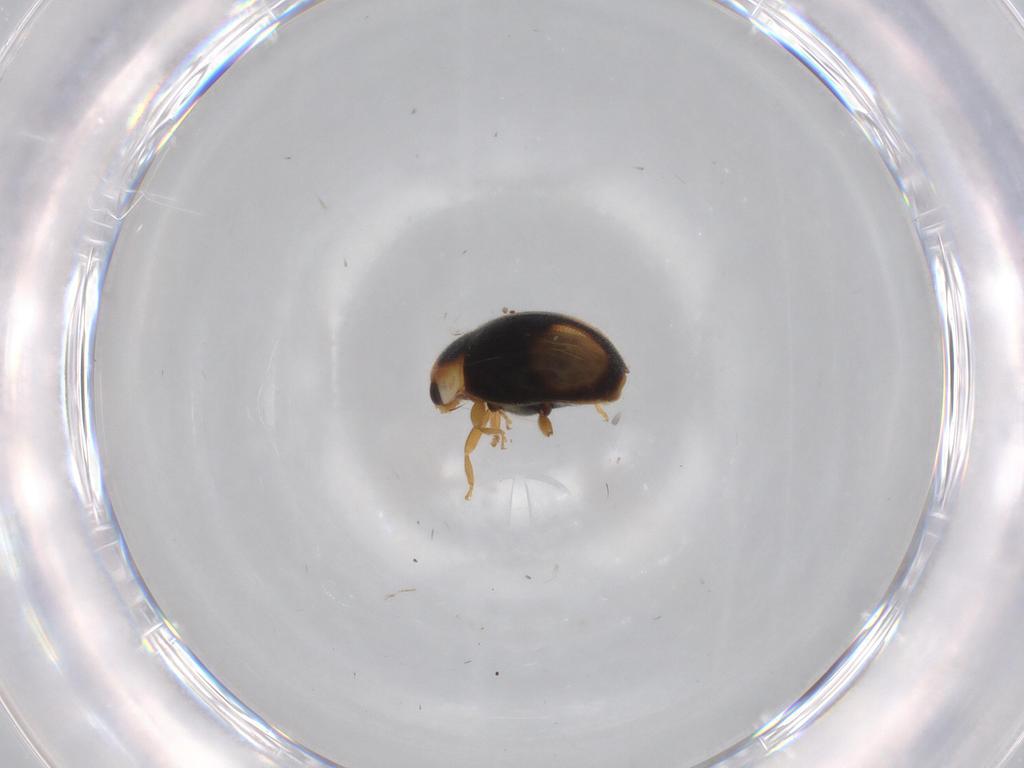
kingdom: Animalia
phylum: Arthropoda
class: Insecta
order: Coleoptera
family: Coccinellidae
